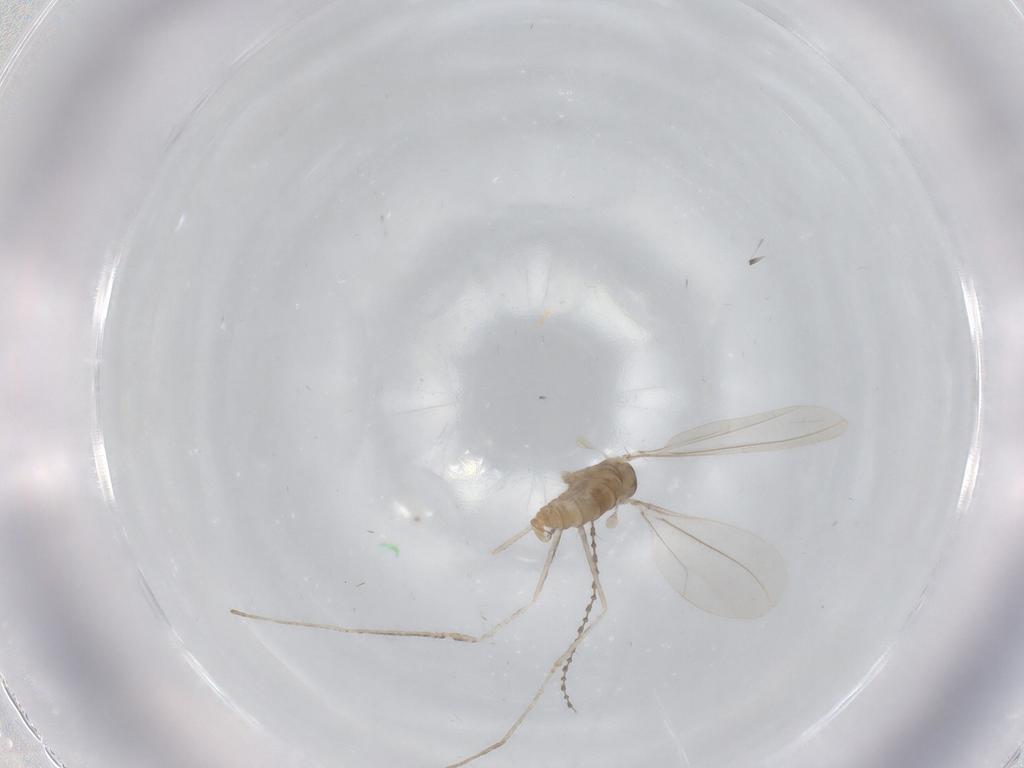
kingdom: Animalia
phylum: Arthropoda
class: Insecta
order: Diptera
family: Cecidomyiidae
